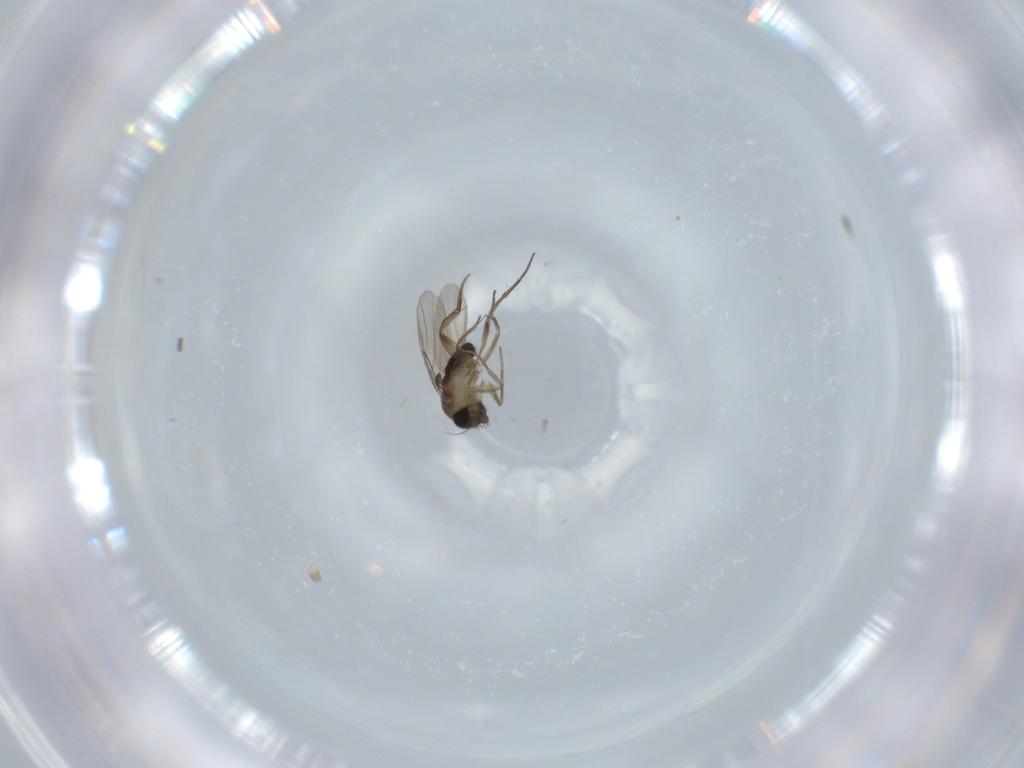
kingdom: Animalia
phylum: Arthropoda
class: Insecta
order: Diptera
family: Phoridae
